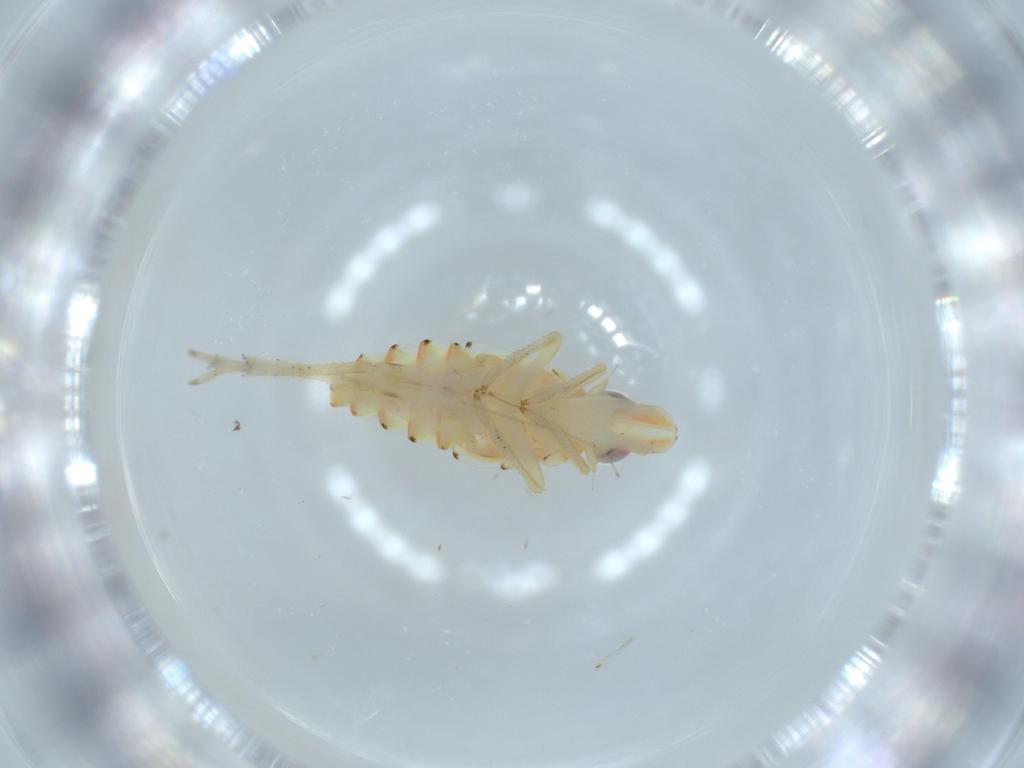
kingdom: Animalia
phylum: Arthropoda
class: Insecta
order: Hemiptera
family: Tropiduchidae
